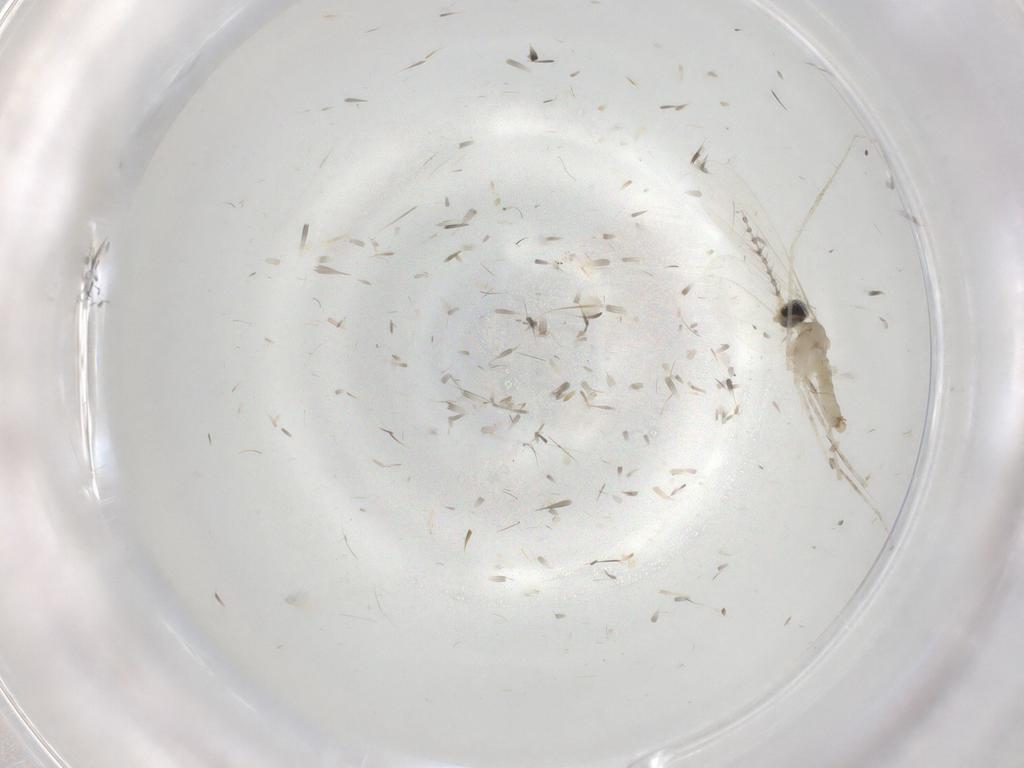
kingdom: Animalia
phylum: Arthropoda
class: Insecta
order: Diptera
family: Cecidomyiidae
